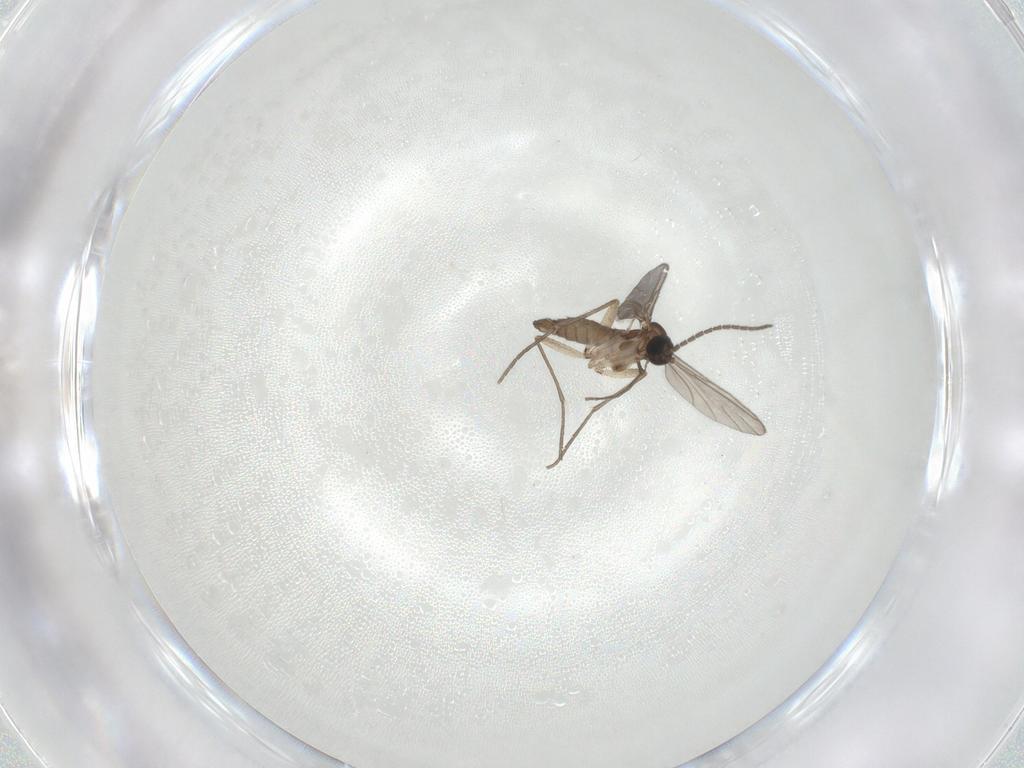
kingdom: Animalia
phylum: Arthropoda
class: Insecta
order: Diptera
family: Sciaridae
